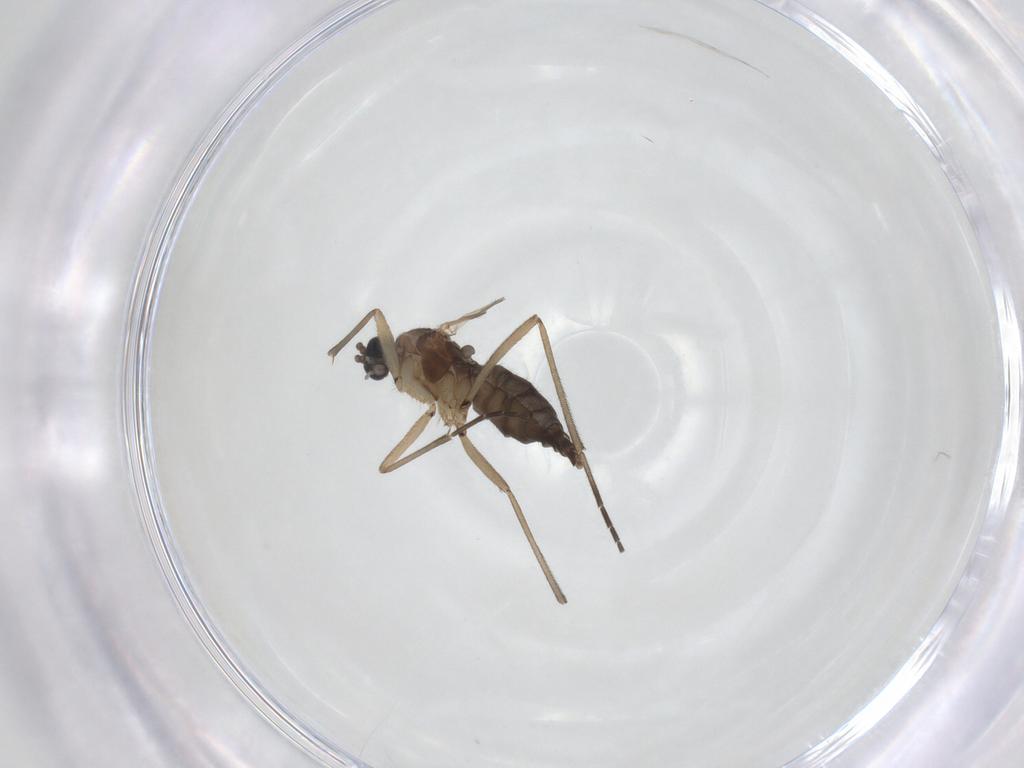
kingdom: Animalia
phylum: Arthropoda
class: Insecta
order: Diptera
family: Sciaridae
